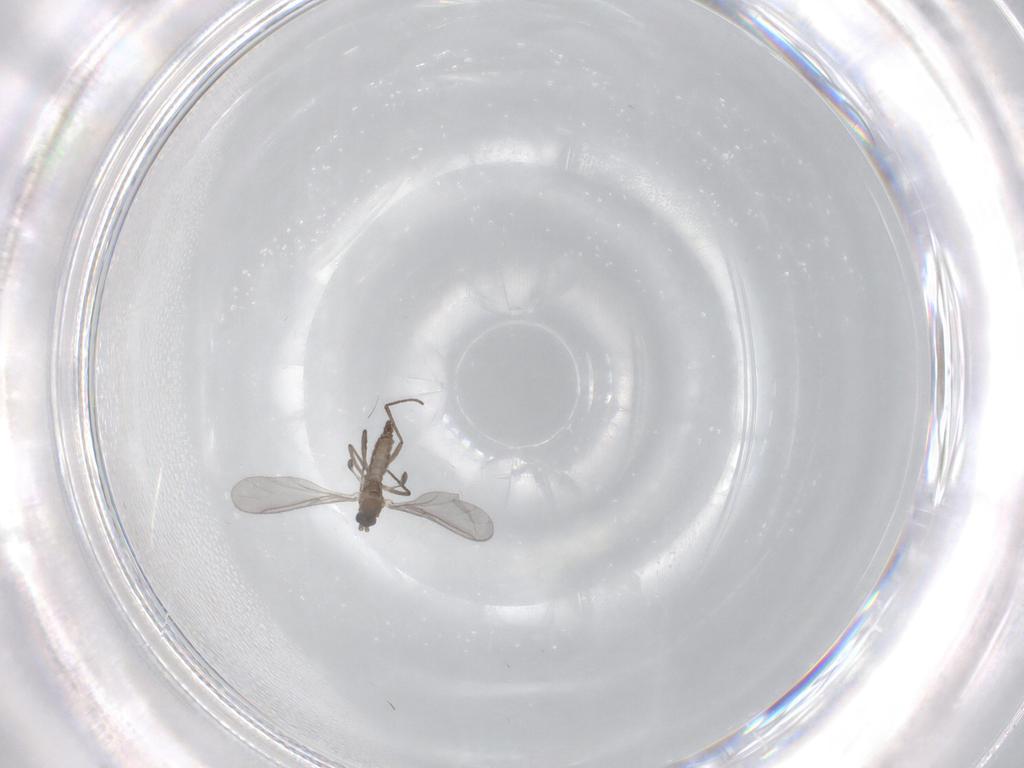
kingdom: Animalia
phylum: Arthropoda
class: Insecta
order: Diptera
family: Sciaridae
